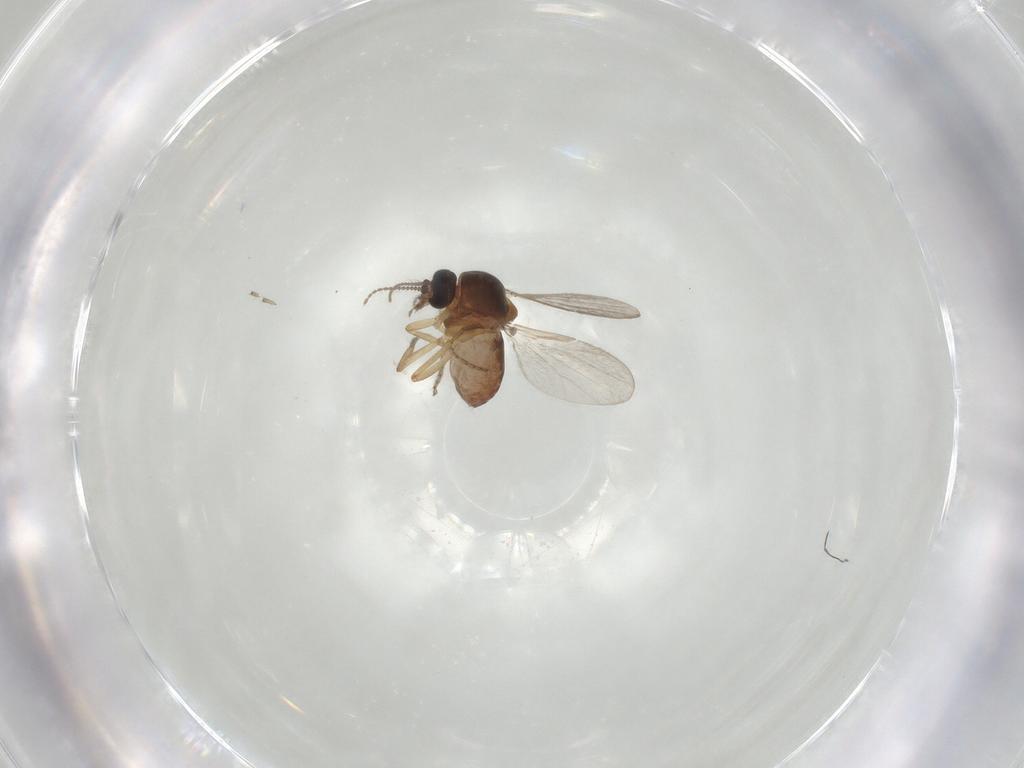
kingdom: Animalia
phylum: Arthropoda
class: Insecta
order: Diptera
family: Ceratopogonidae
